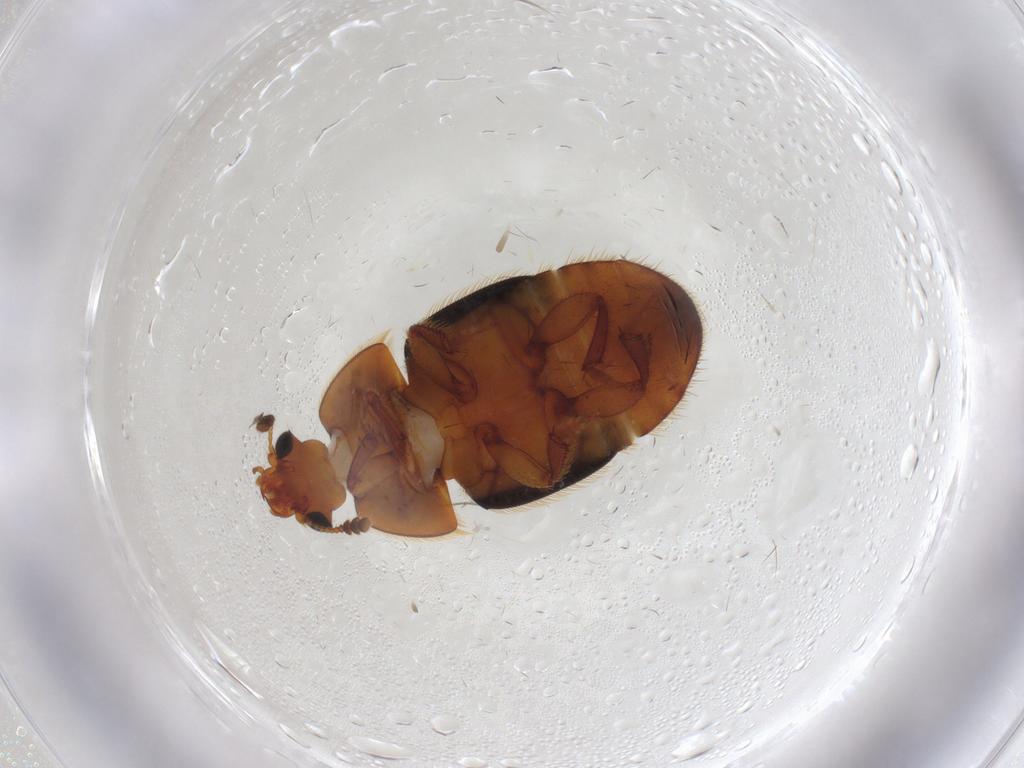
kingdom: Animalia
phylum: Arthropoda
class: Insecta
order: Coleoptera
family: Nitidulidae
